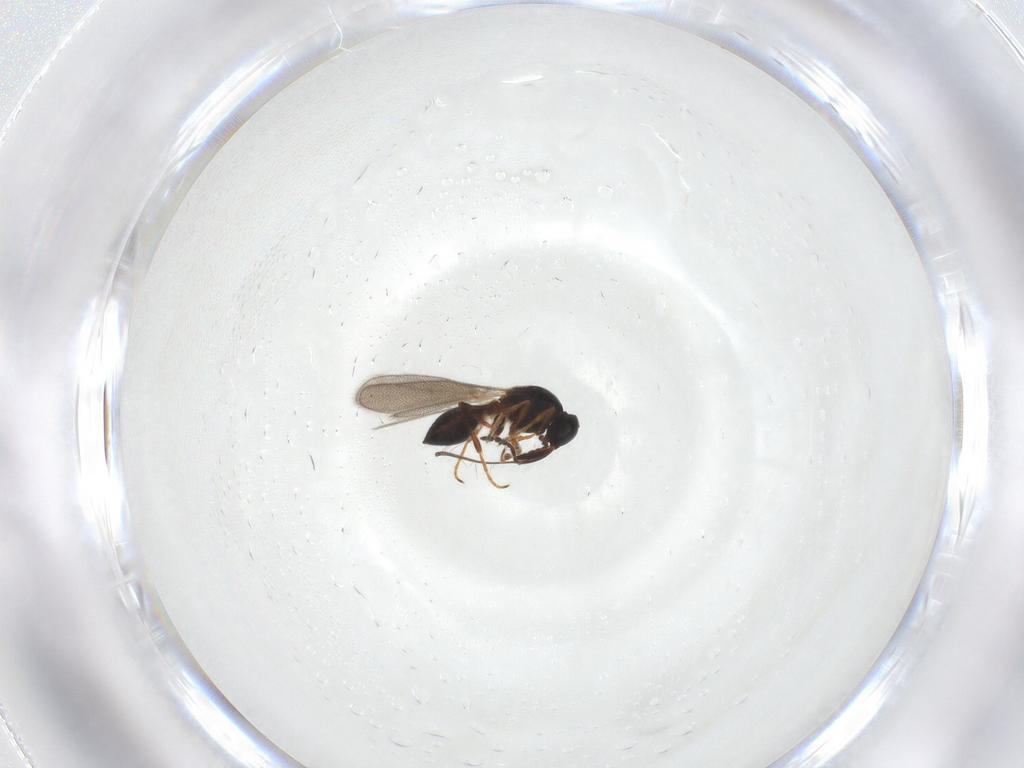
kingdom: Animalia
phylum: Arthropoda
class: Insecta
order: Hymenoptera
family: Platygastridae
